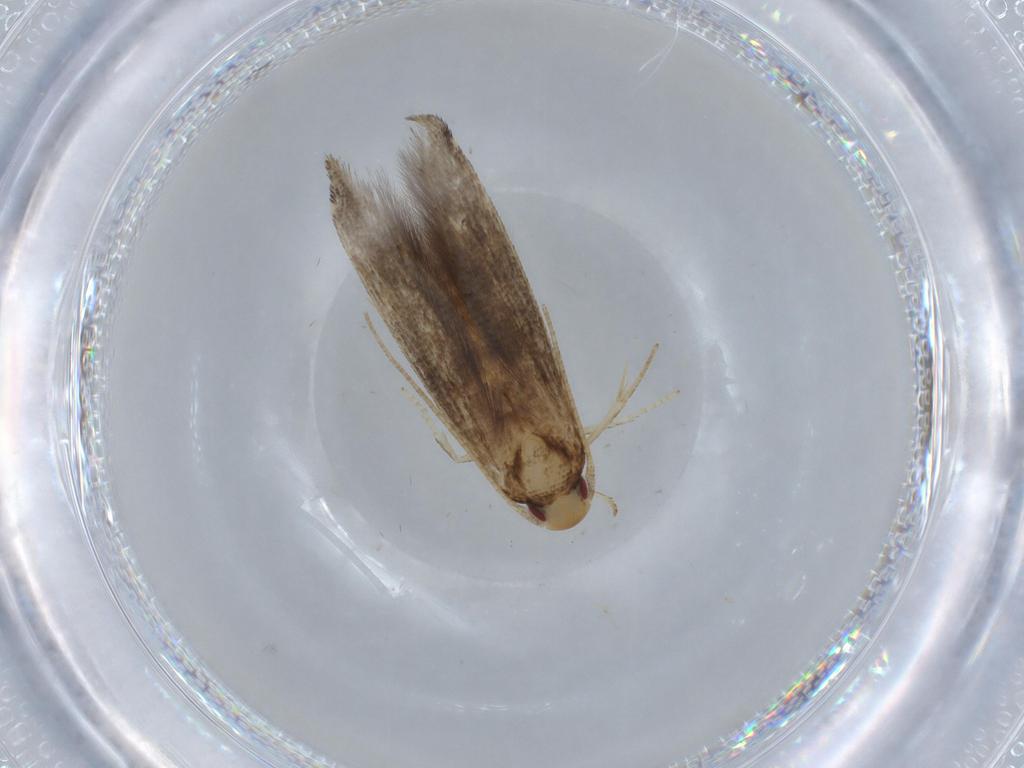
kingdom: Animalia
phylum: Arthropoda
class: Insecta
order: Lepidoptera
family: Momphidae
